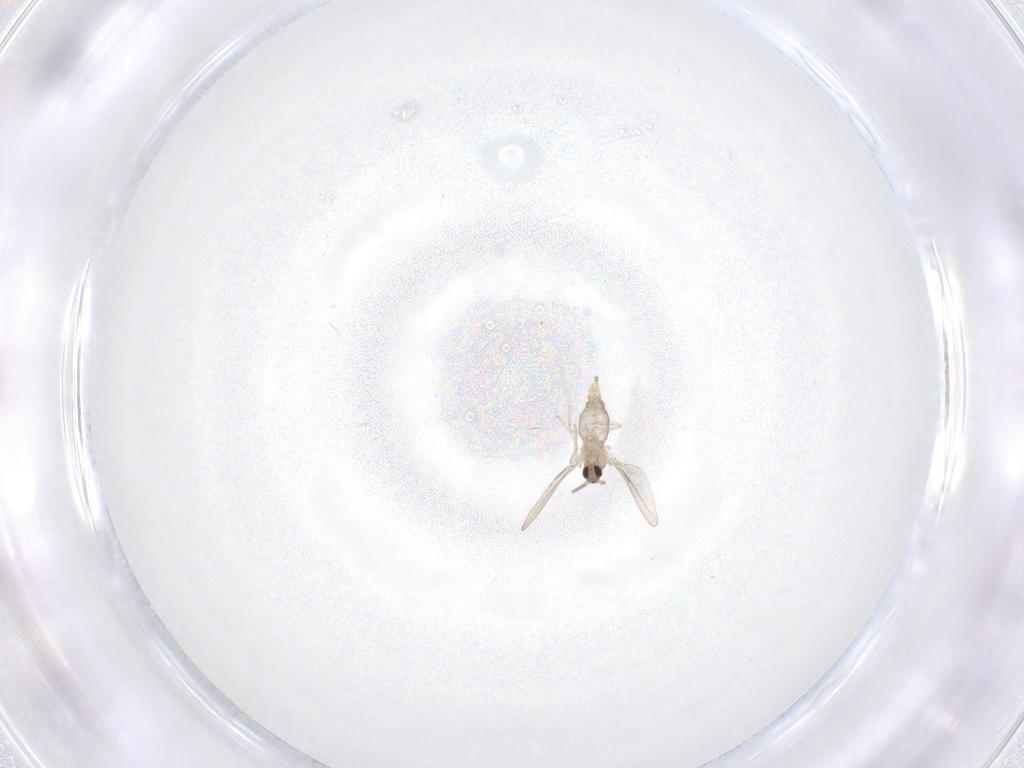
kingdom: Animalia
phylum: Arthropoda
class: Insecta
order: Diptera
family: Cecidomyiidae
